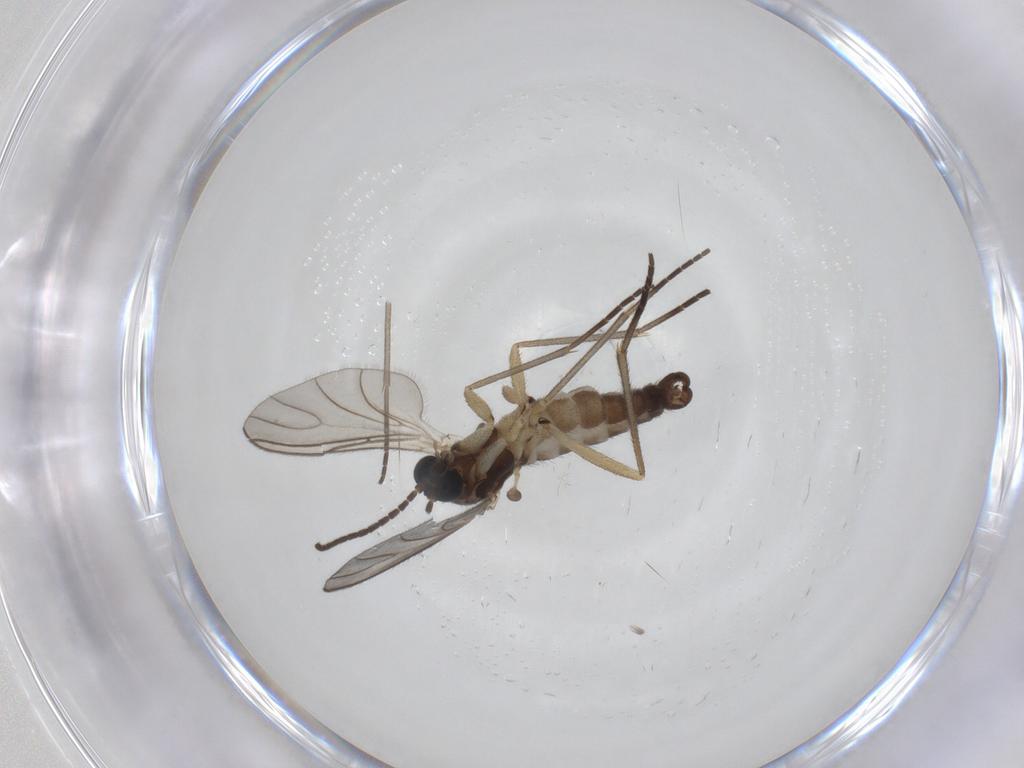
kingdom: Animalia
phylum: Arthropoda
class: Insecta
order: Diptera
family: Sciaridae
